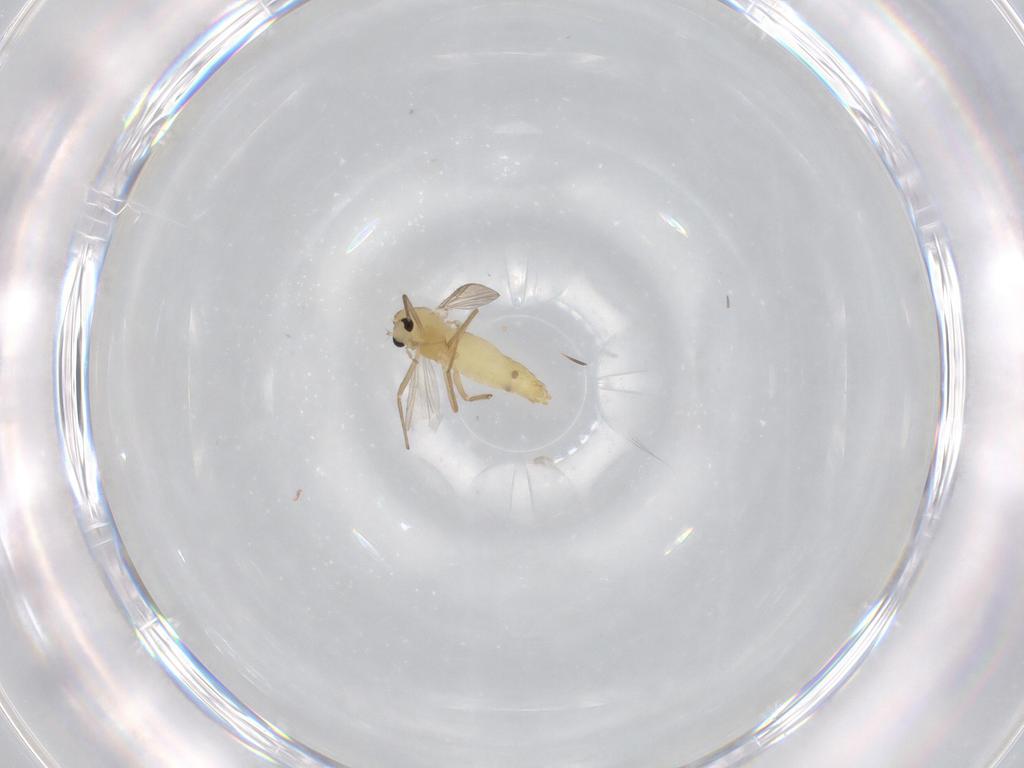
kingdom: Animalia
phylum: Arthropoda
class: Insecta
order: Diptera
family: Chironomidae
